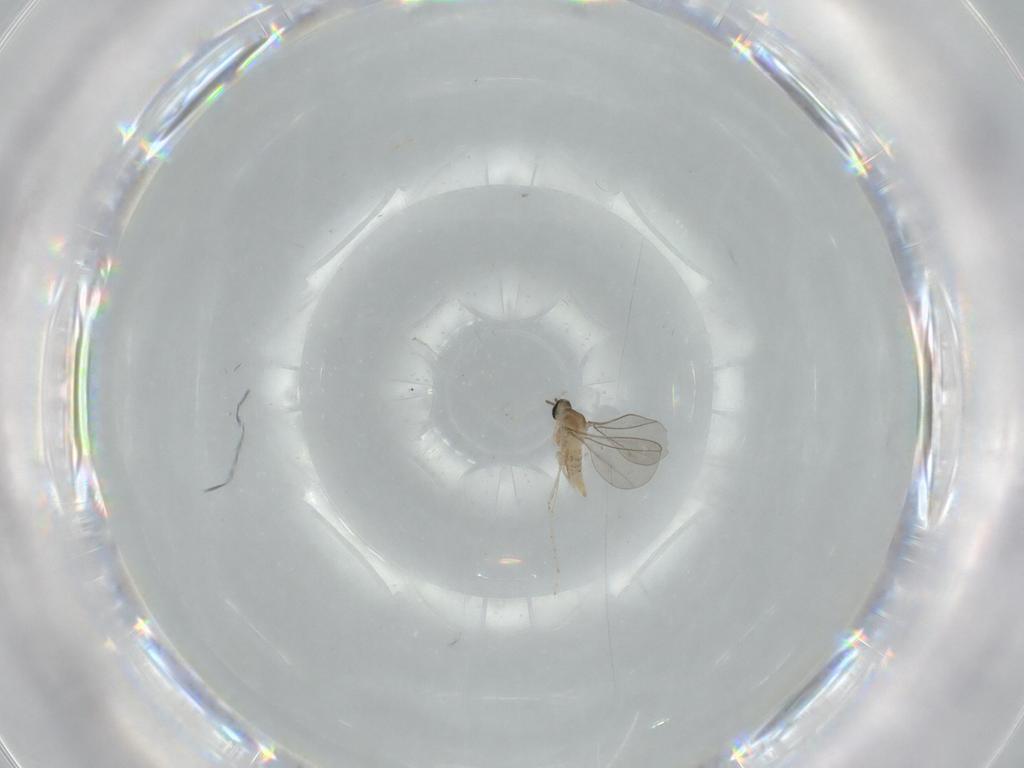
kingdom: Animalia
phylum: Arthropoda
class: Insecta
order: Diptera
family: Cecidomyiidae
